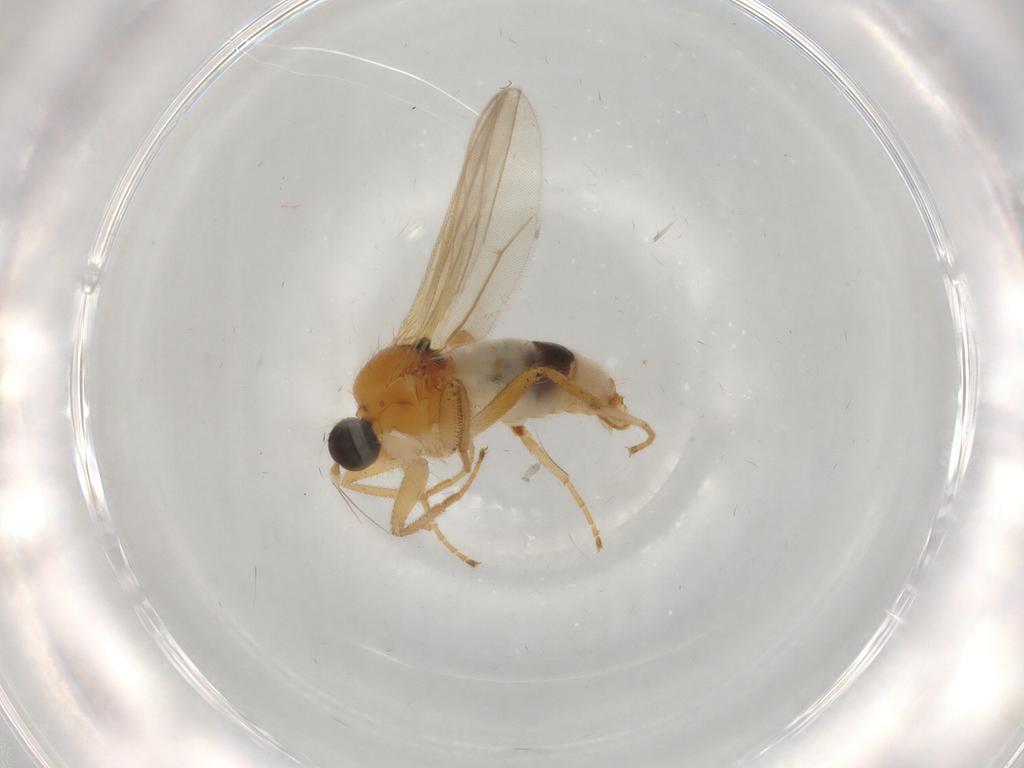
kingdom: Animalia
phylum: Arthropoda
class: Insecta
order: Diptera
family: Hybotidae
